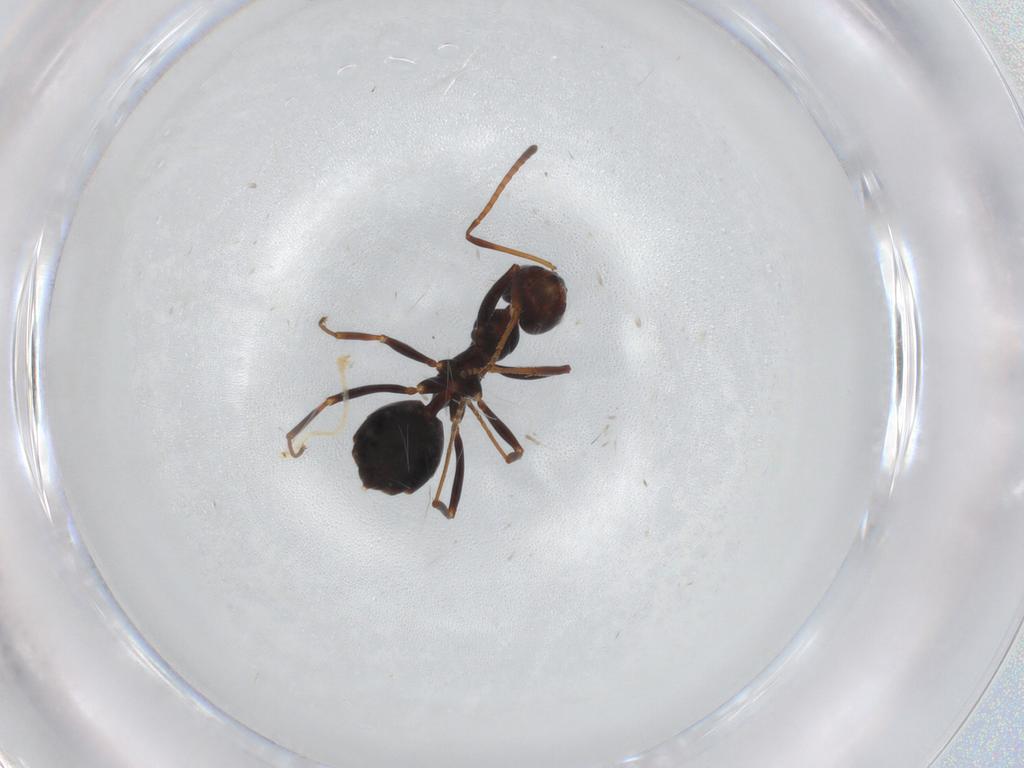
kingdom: Animalia
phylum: Arthropoda
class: Insecta
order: Hymenoptera
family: Formicidae
